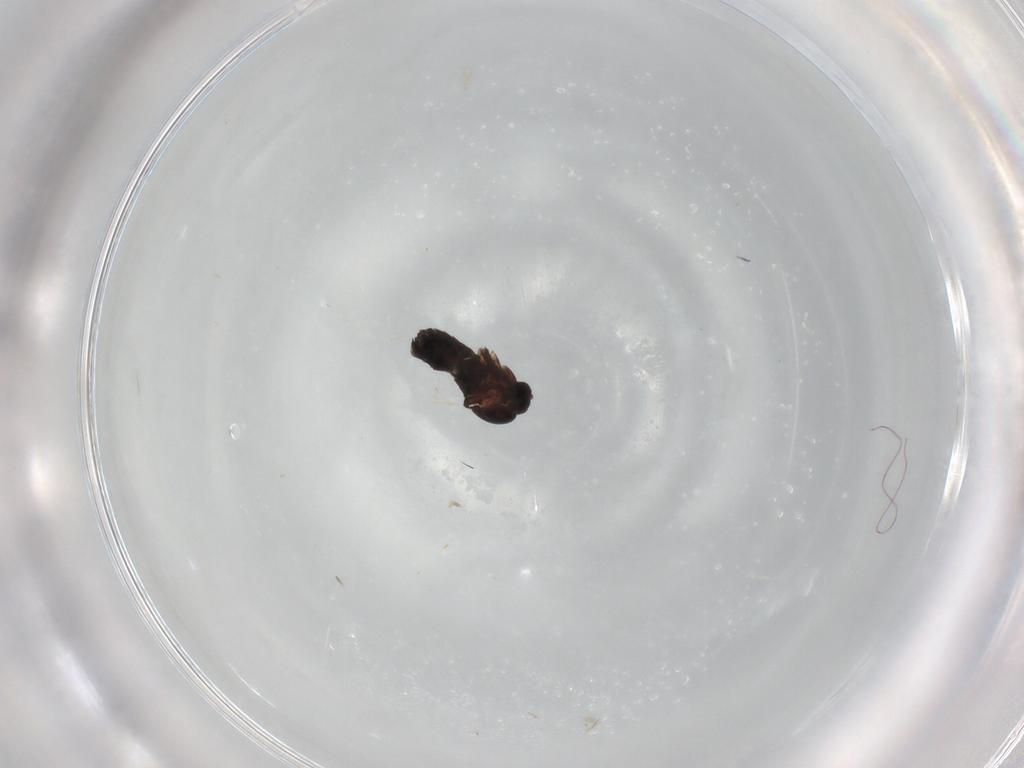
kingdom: Animalia
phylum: Arthropoda
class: Insecta
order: Diptera
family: Scatopsidae
